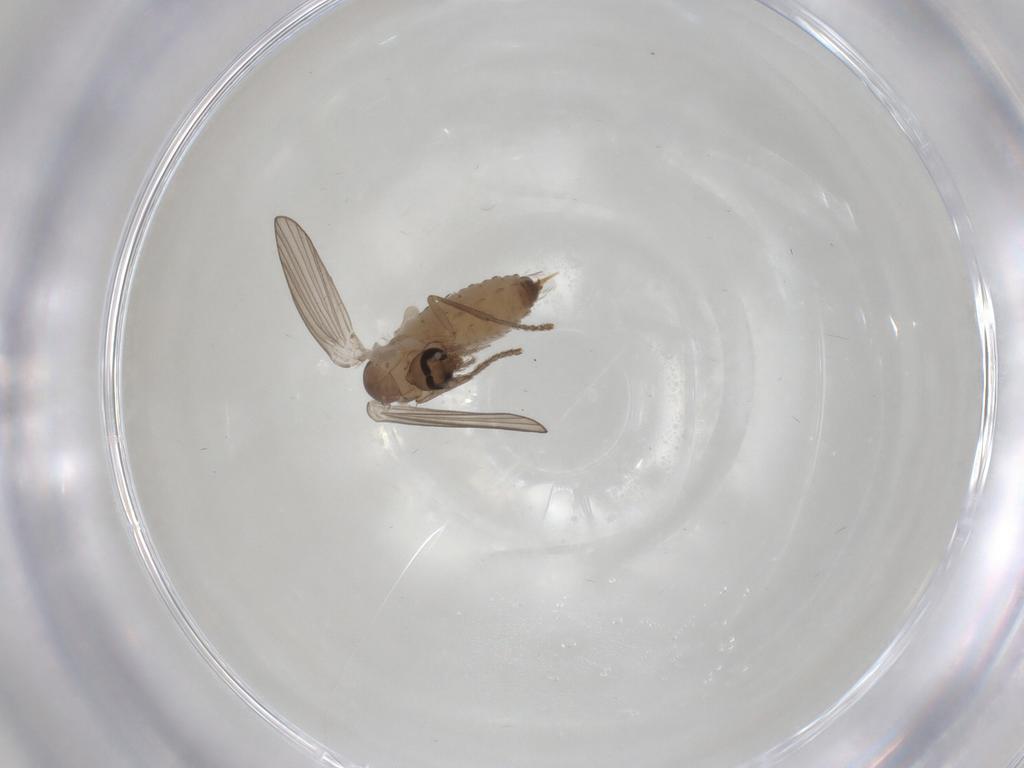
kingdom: Animalia
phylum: Arthropoda
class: Insecta
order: Diptera
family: Psychodidae
